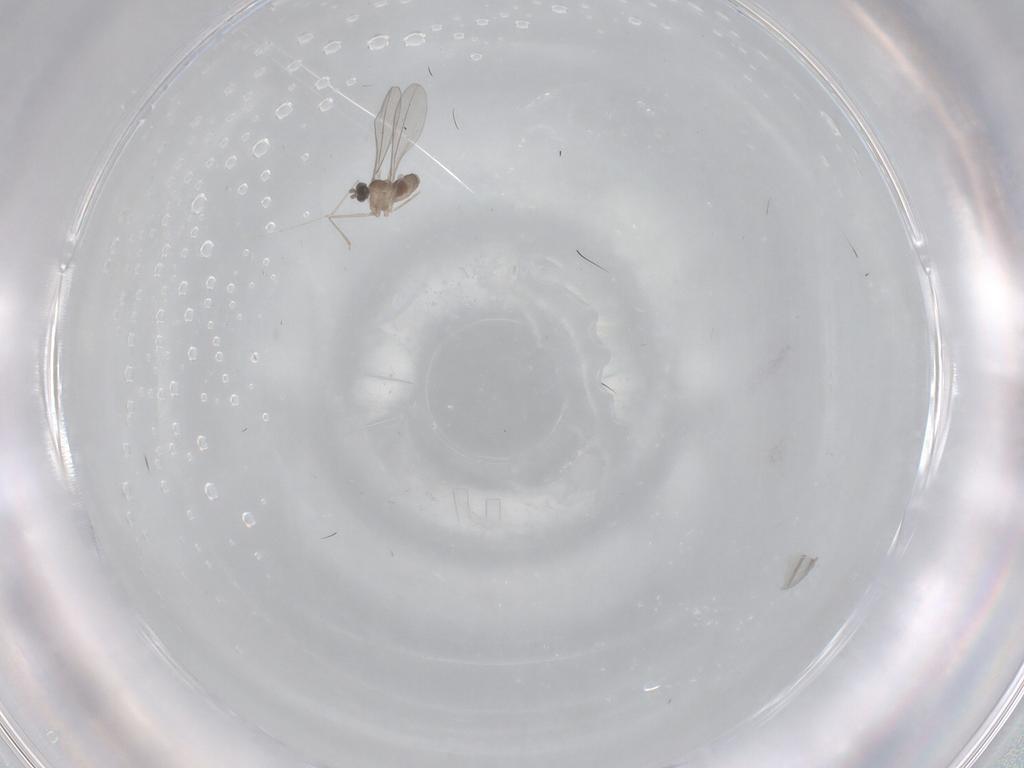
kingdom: Animalia
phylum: Arthropoda
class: Insecta
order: Diptera
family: Cecidomyiidae
